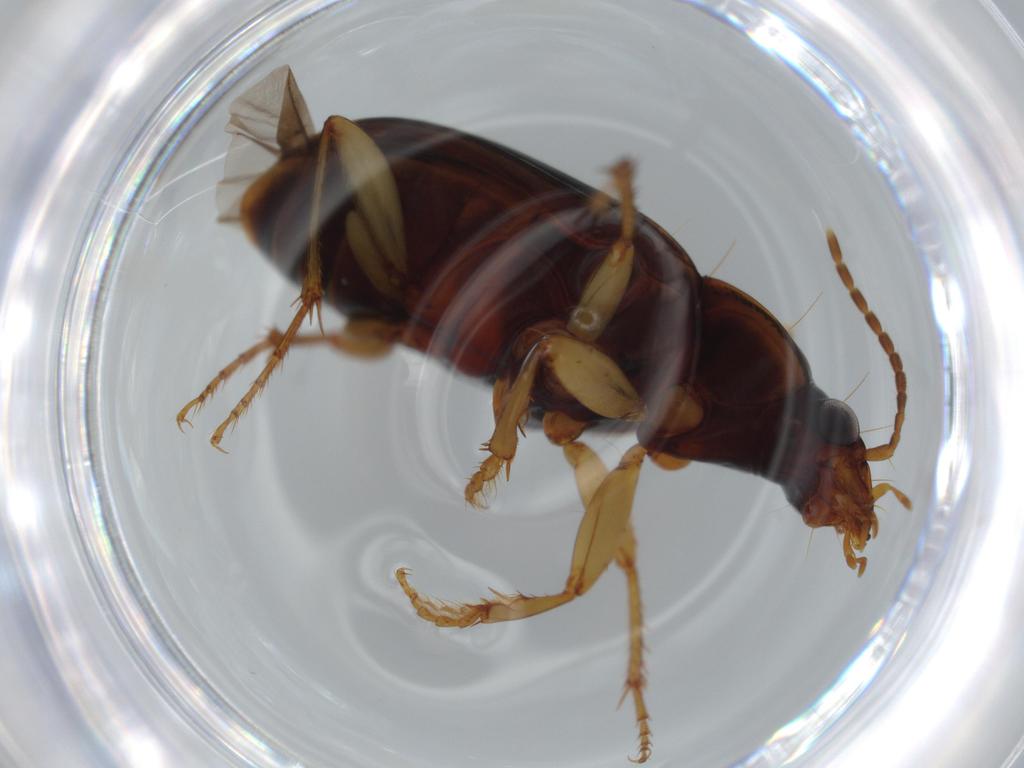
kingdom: Animalia
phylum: Arthropoda
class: Insecta
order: Coleoptera
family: Carabidae
